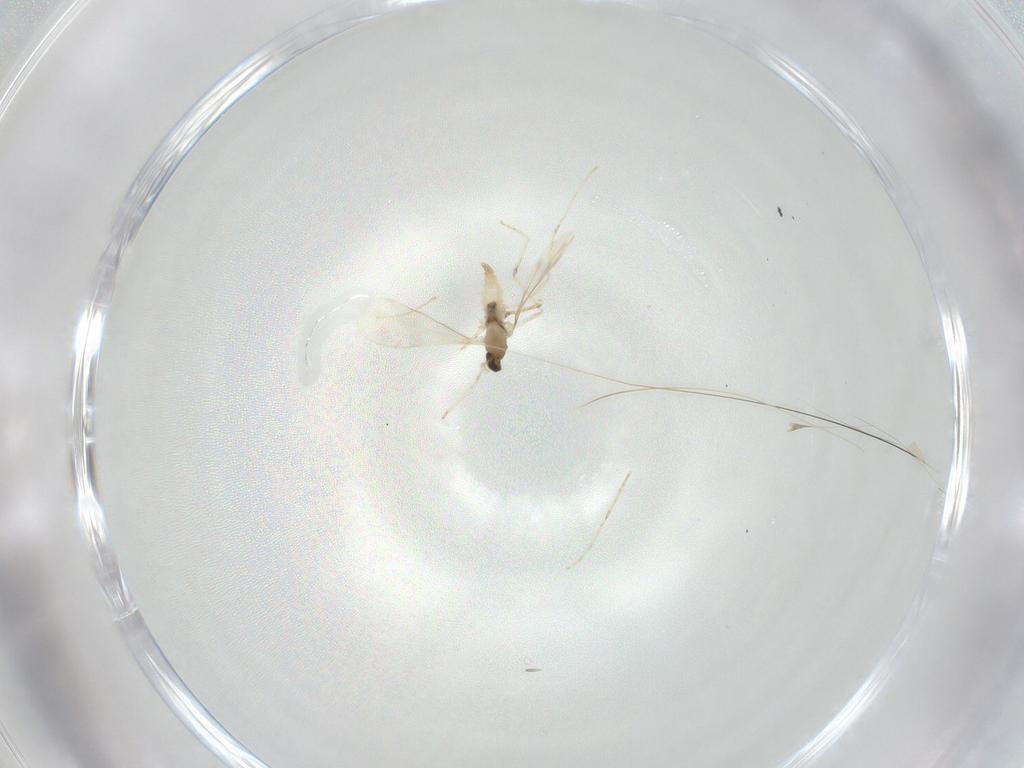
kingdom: Animalia
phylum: Arthropoda
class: Insecta
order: Diptera
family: Cecidomyiidae
